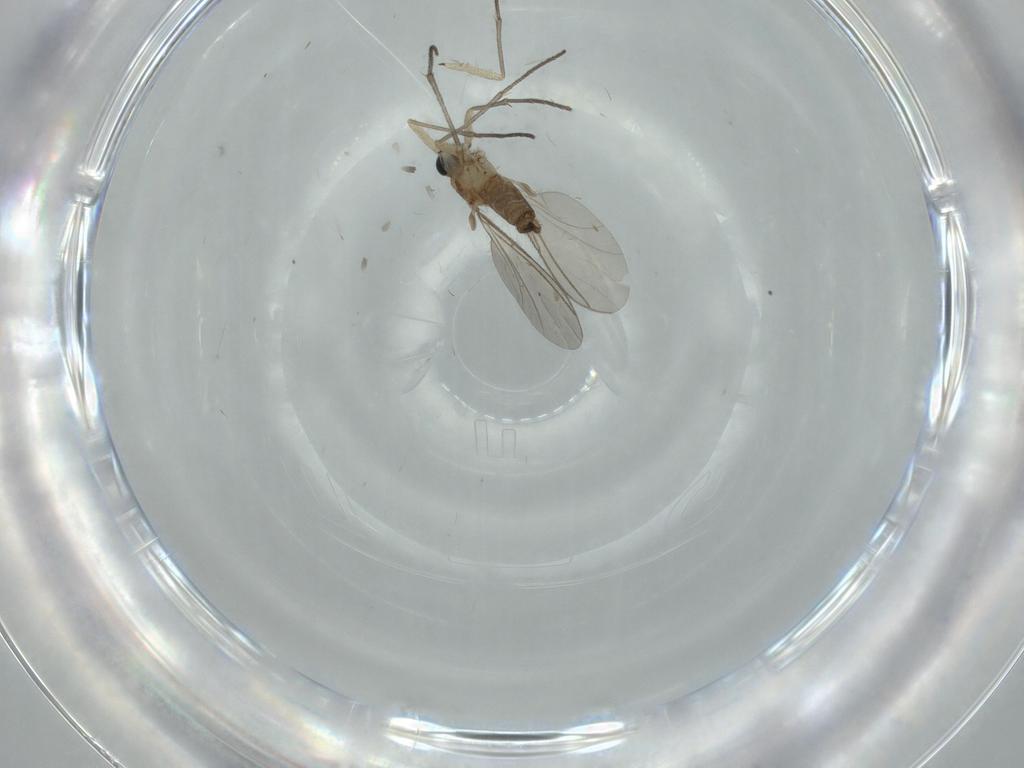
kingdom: Animalia
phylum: Arthropoda
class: Insecta
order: Diptera
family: Sciaridae
